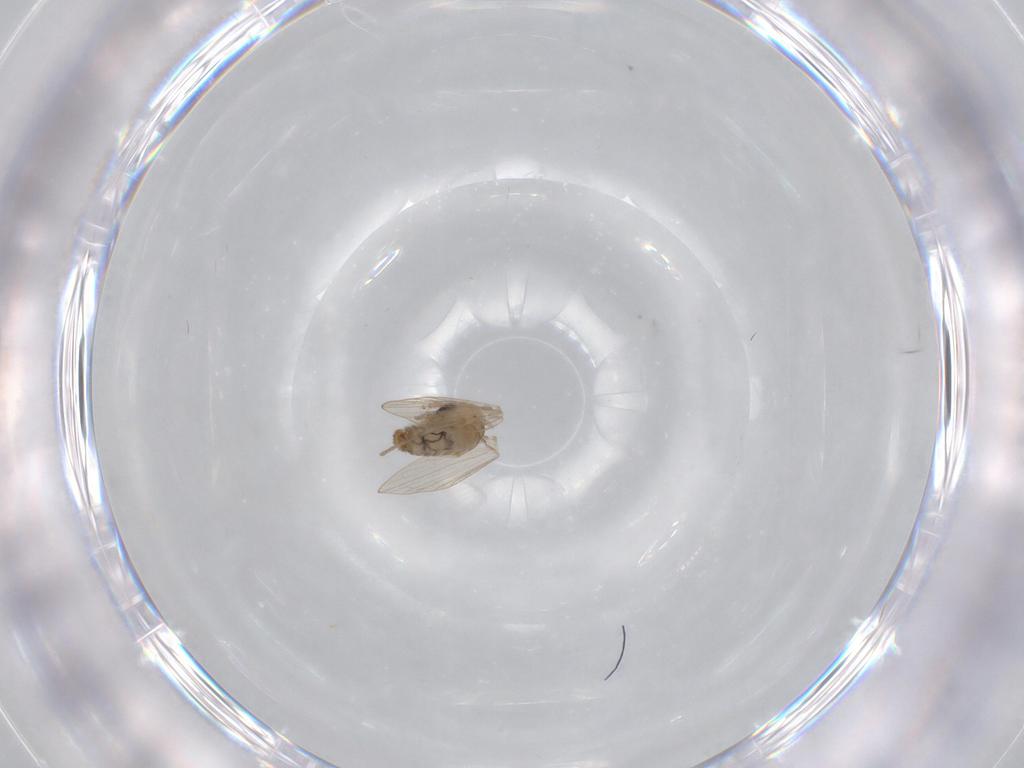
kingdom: Animalia
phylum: Arthropoda
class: Insecta
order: Diptera
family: Psychodidae
